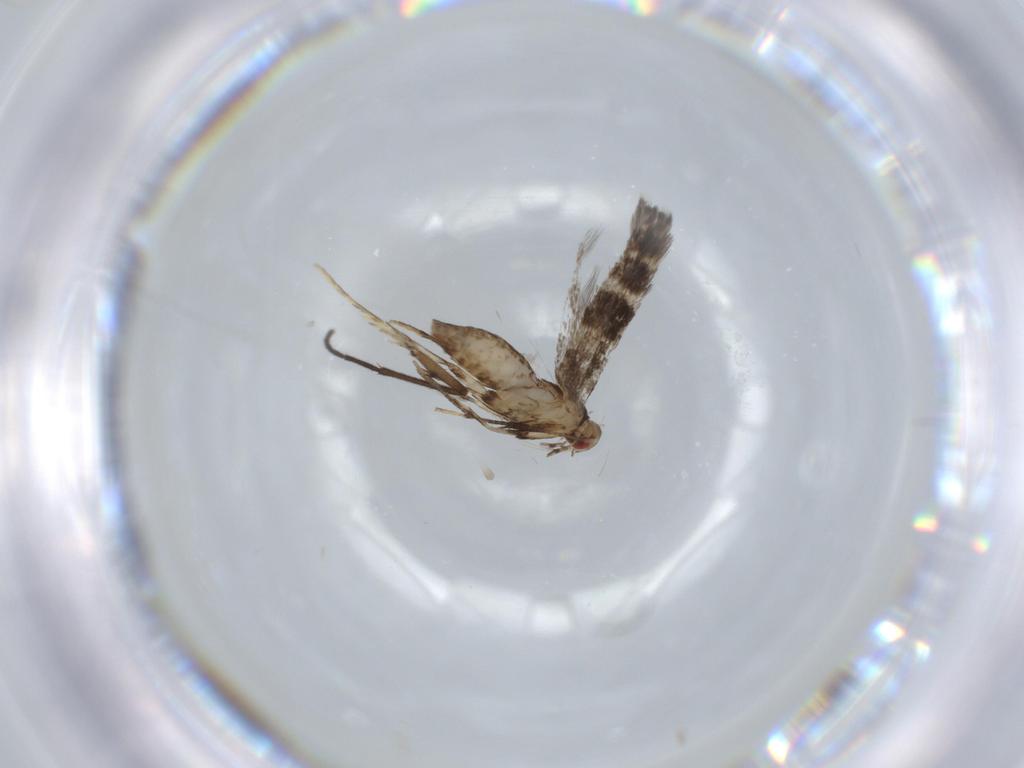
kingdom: Animalia
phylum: Arthropoda
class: Insecta
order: Lepidoptera
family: Gracillariidae
